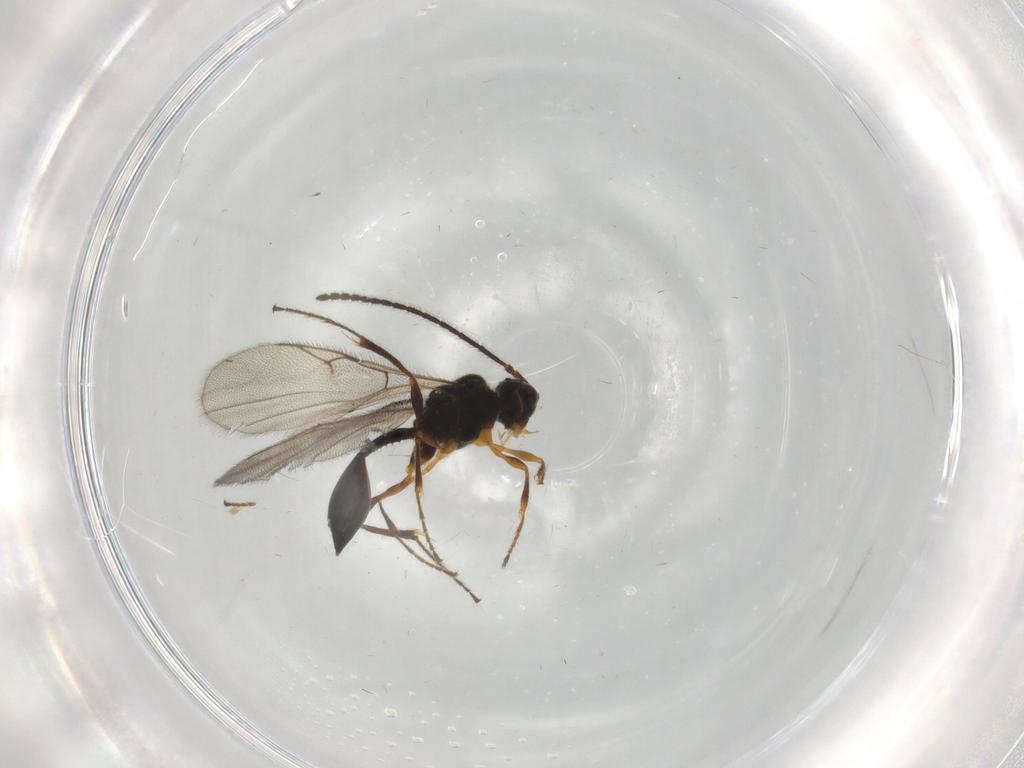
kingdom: Animalia
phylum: Arthropoda
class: Insecta
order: Hymenoptera
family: Diapriidae
